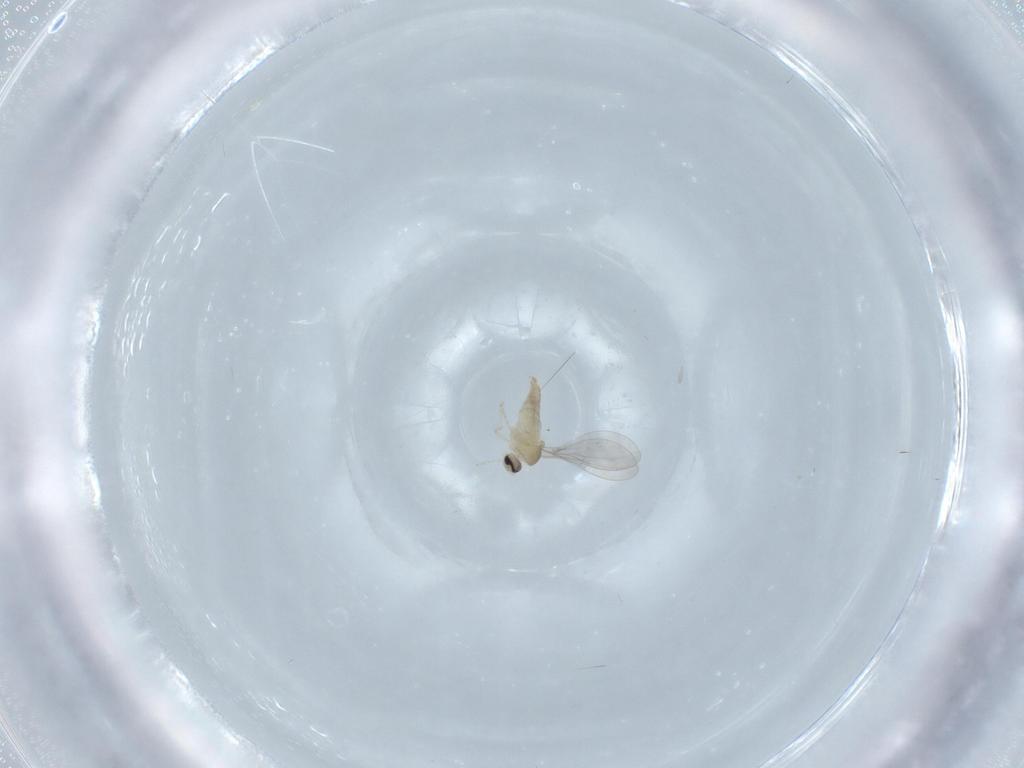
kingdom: Animalia
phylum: Arthropoda
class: Insecta
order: Diptera
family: Cecidomyiidae
